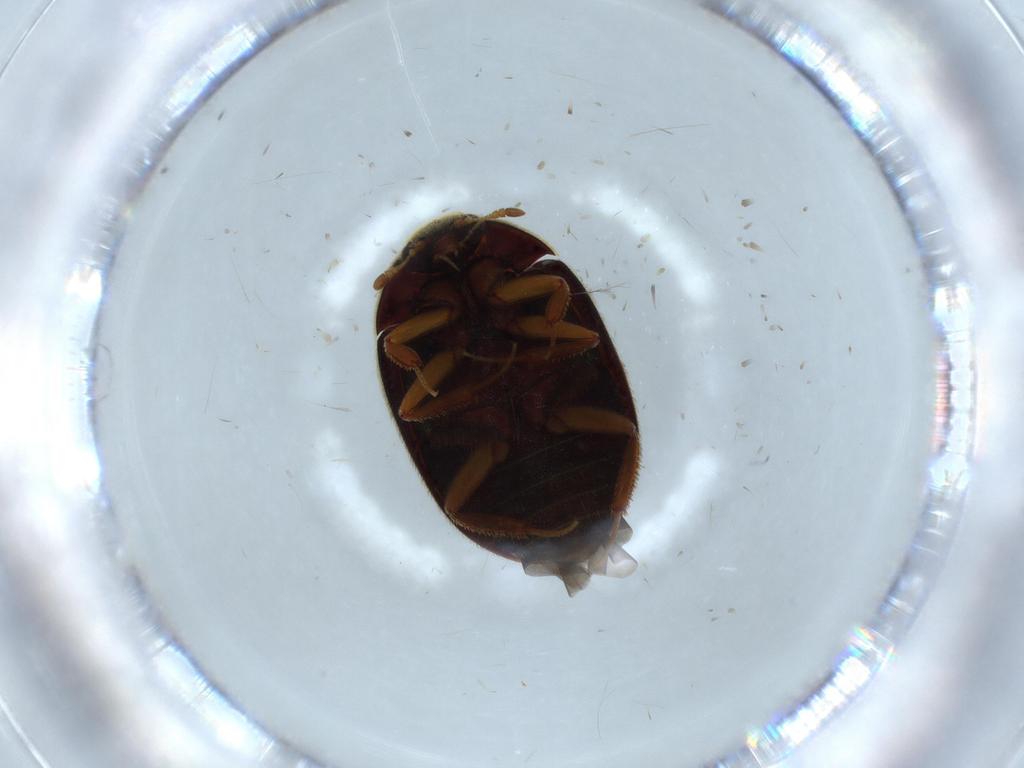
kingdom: Animalia
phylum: Arthropoda
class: Insecta
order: Coleoptera
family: Dermestidae
